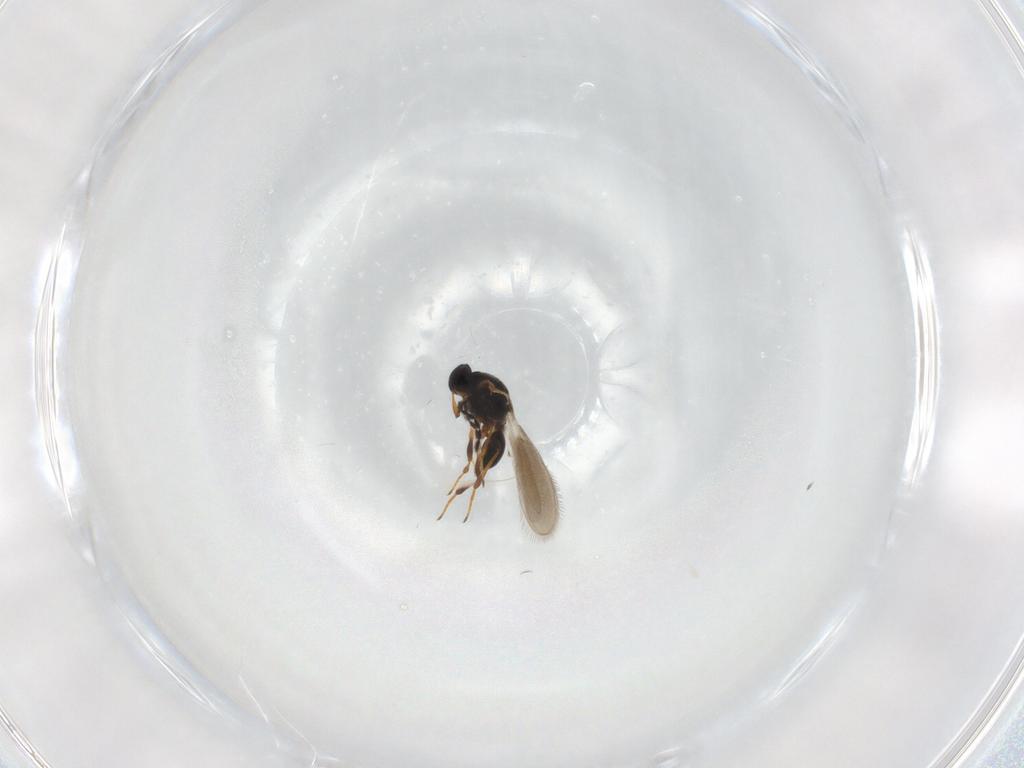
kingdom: Animalia
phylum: Arthropoda
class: Insecta
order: Hymenoptera
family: Platygastridae
